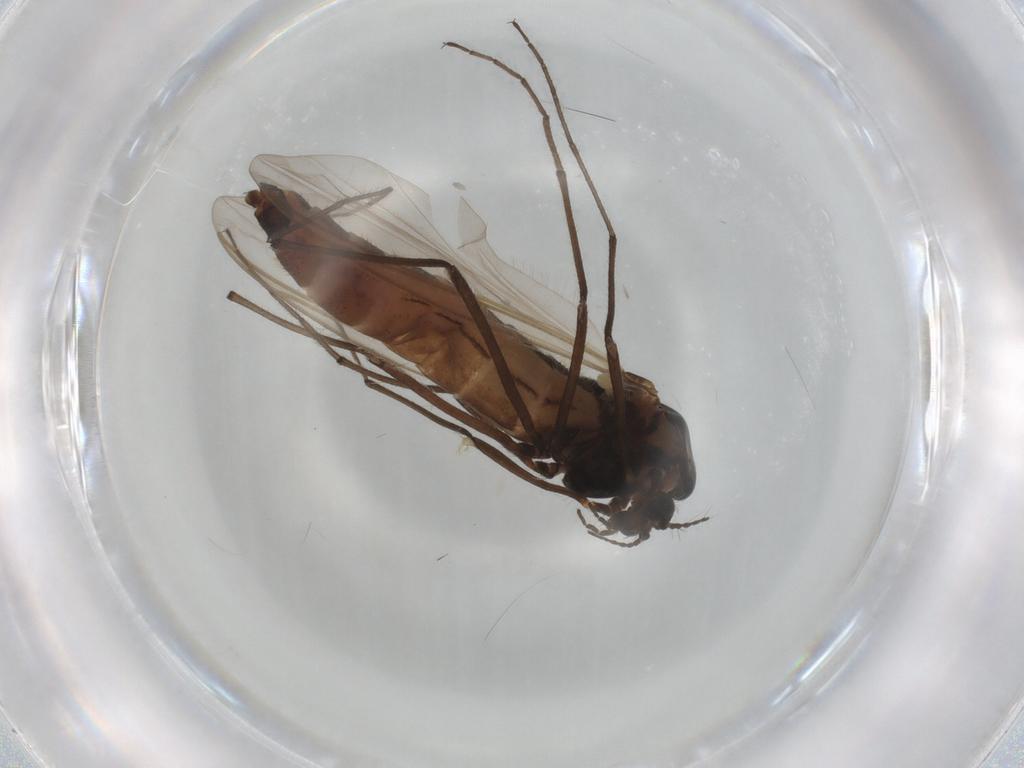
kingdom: Animalia
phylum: Arthropoda
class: Insecta
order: Diptera
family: Chironomidae
